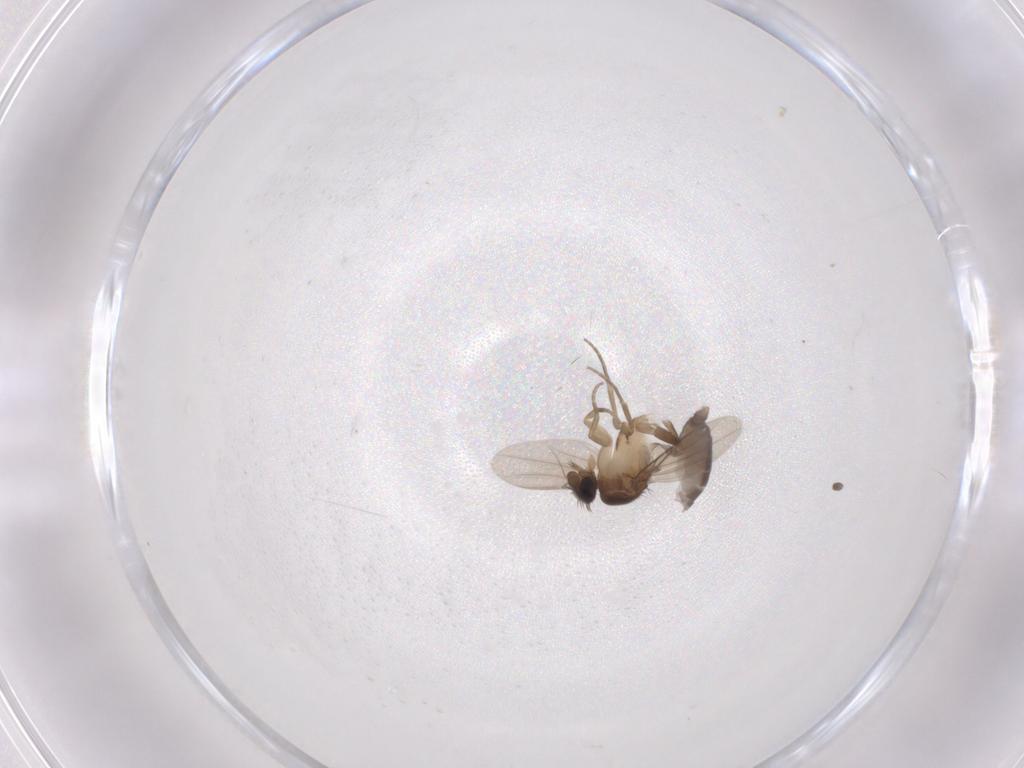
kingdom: Animalia
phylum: Arthropoda
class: Insecta
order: Diptera
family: Phoridae
